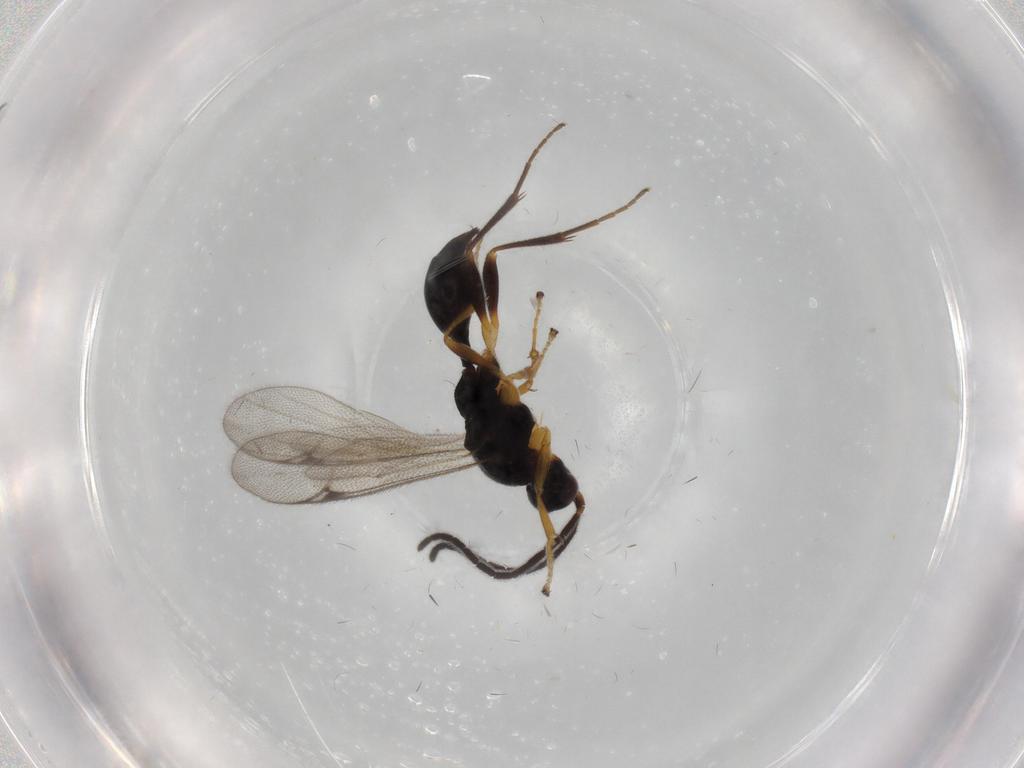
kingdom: Animalia
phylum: Arthropoda
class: Insecta
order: Hymenoptera
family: Proctotrupidae
